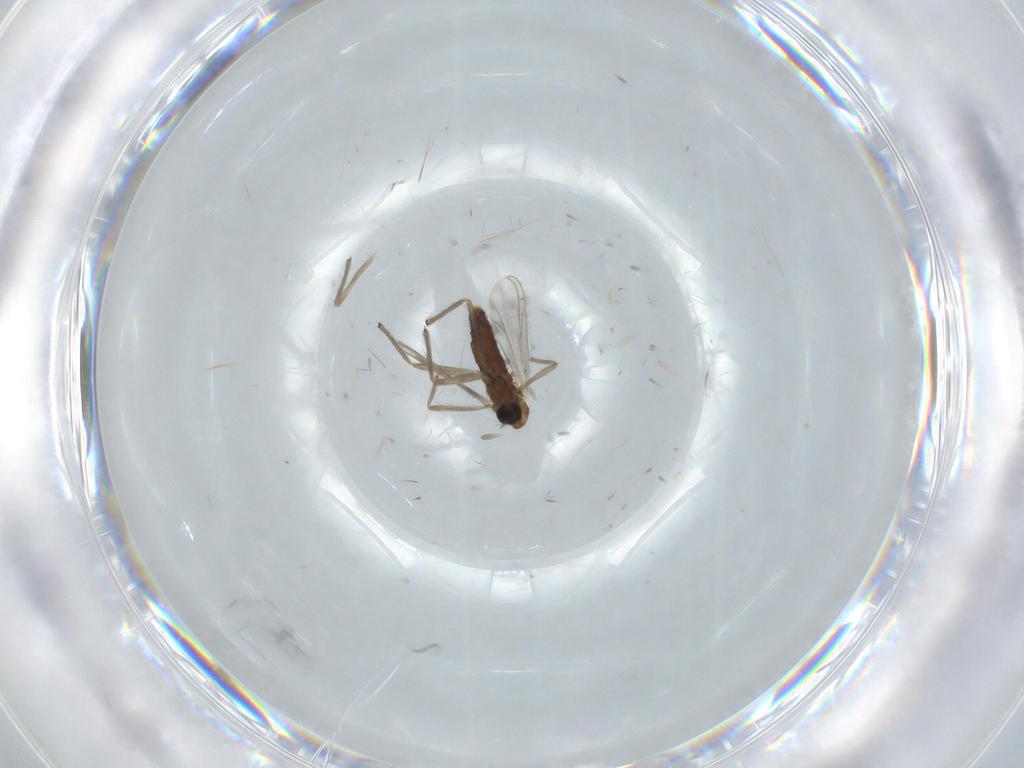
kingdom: Animalia
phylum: Arthropoda
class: Insecta
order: Diptera
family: Chironomidae
